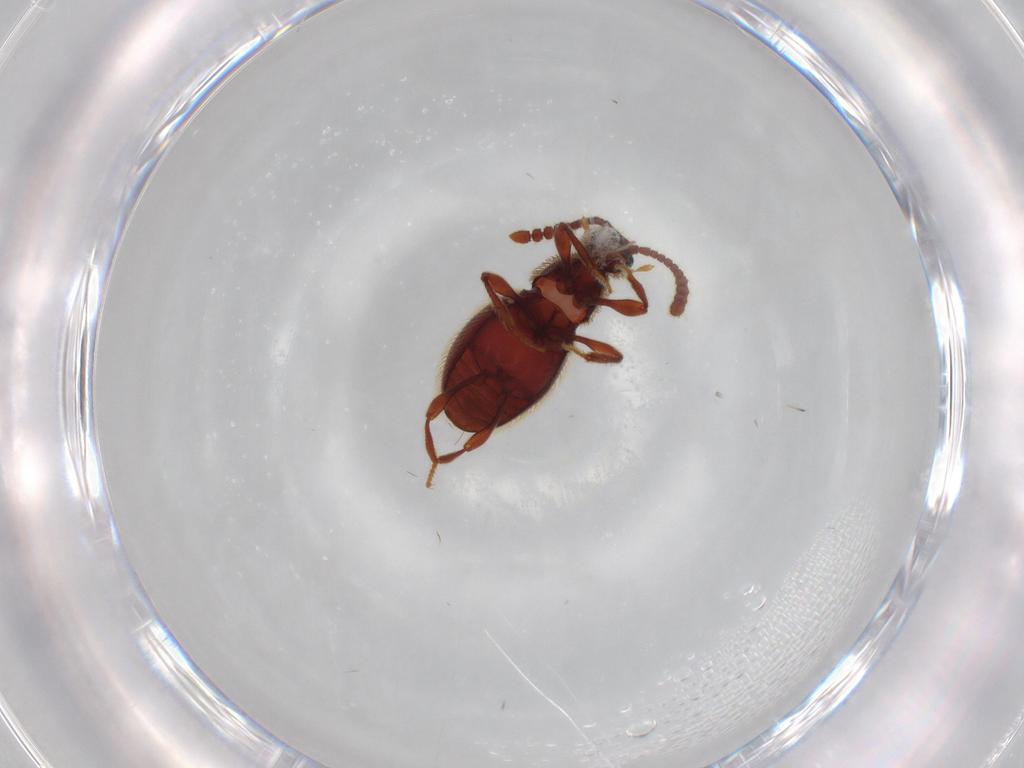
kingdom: Animalia
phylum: Arthropoda
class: Insecta
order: Coleoptera
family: Staphylinidae
